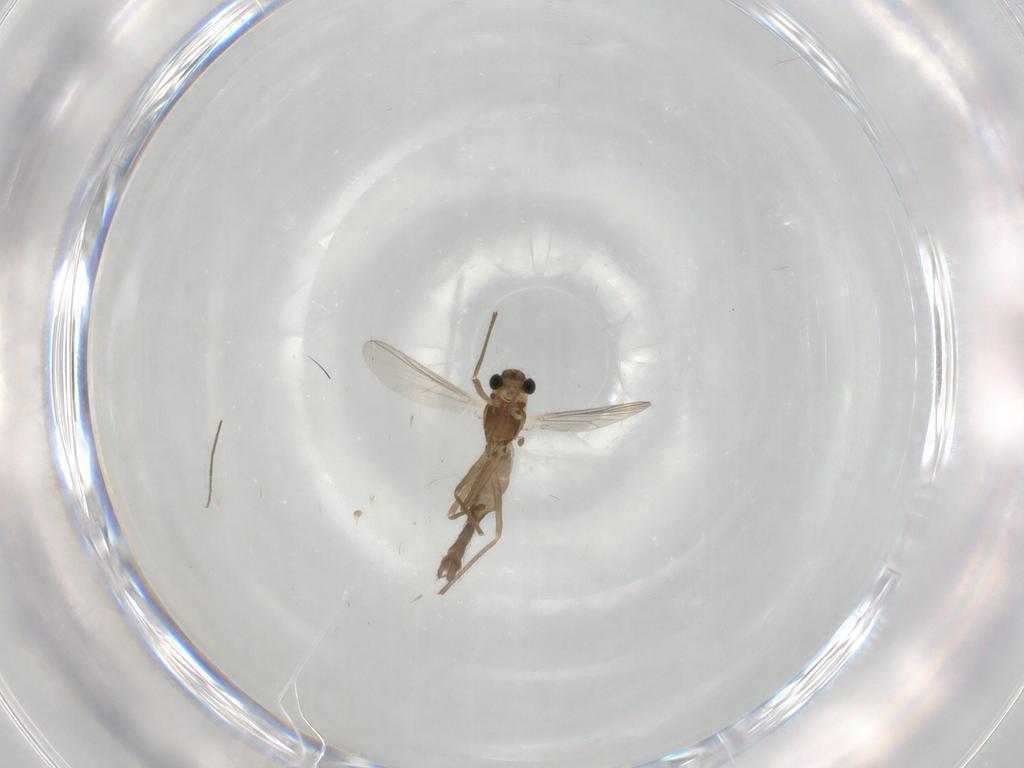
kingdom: Animalia
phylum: Arthropoda
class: Insecta
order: Diptera
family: Chironomidae
